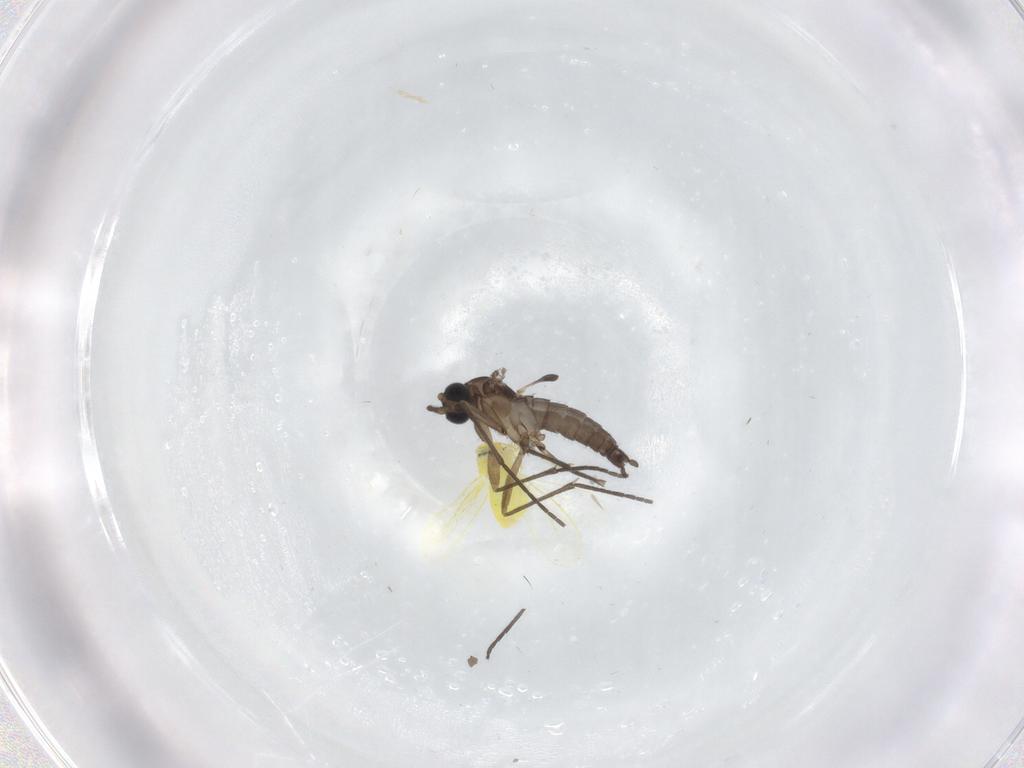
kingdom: Animalia
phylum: Arthropoda
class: Insecta
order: Diptera
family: Sciaridae
